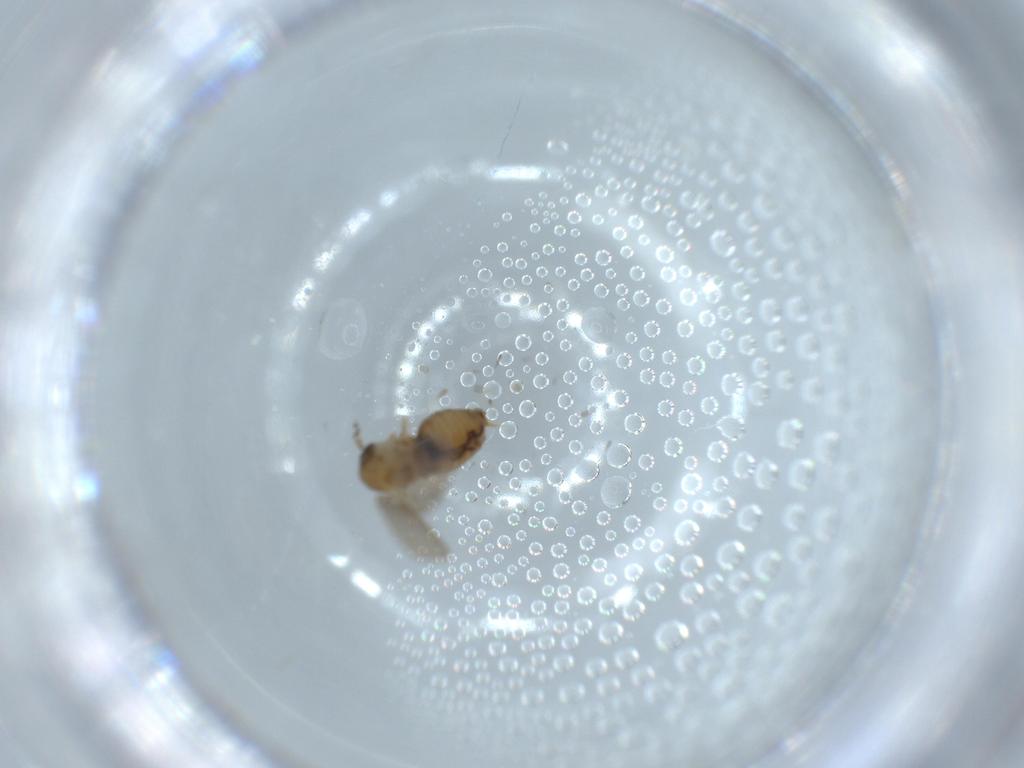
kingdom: Animalia
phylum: Arthropoda
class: Insecta
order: Diptera
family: Psychodidae
